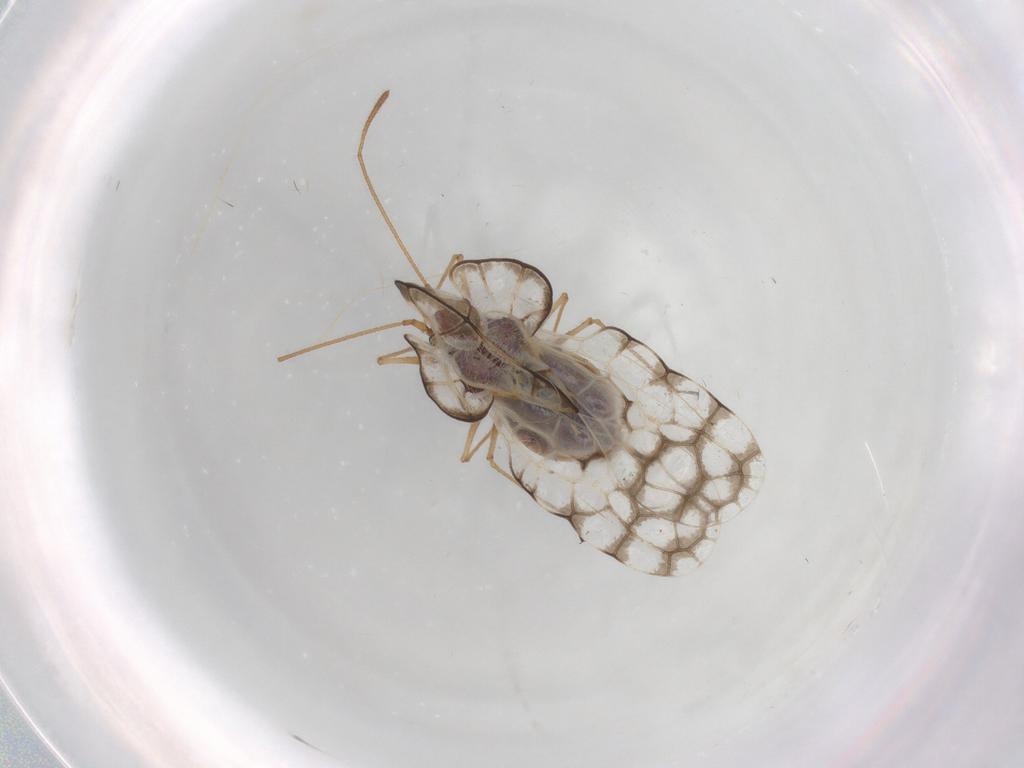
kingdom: Animalia
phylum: Arthropoda
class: Insecta
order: Hemiptera
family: Tingidae
